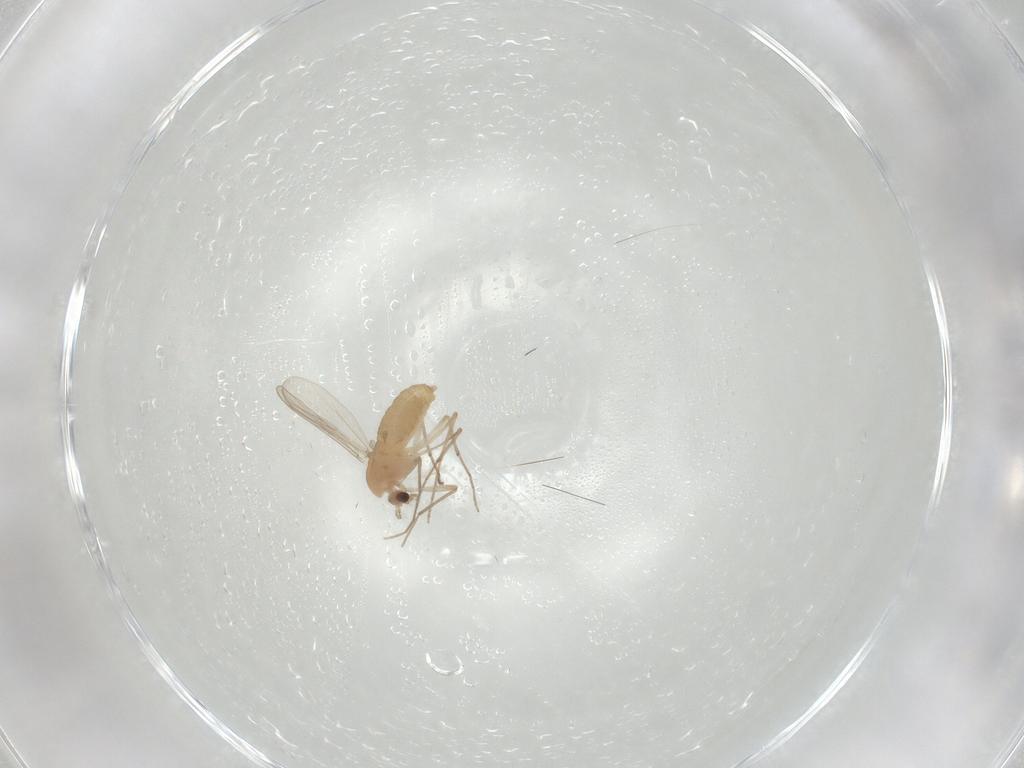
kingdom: Animalia
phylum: Arthropoda
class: Insecta
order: Diptera
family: Chironomidae
